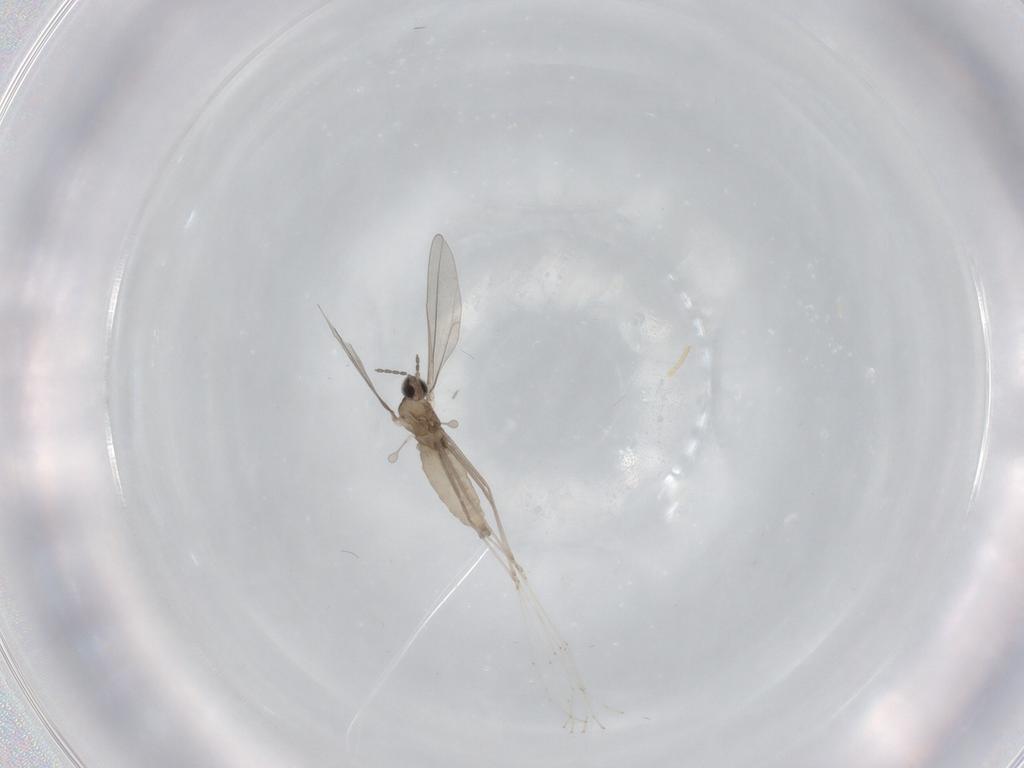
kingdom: Animalia
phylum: Arthropoda
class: Insecta
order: Diptera
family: Cecidomyiidae
